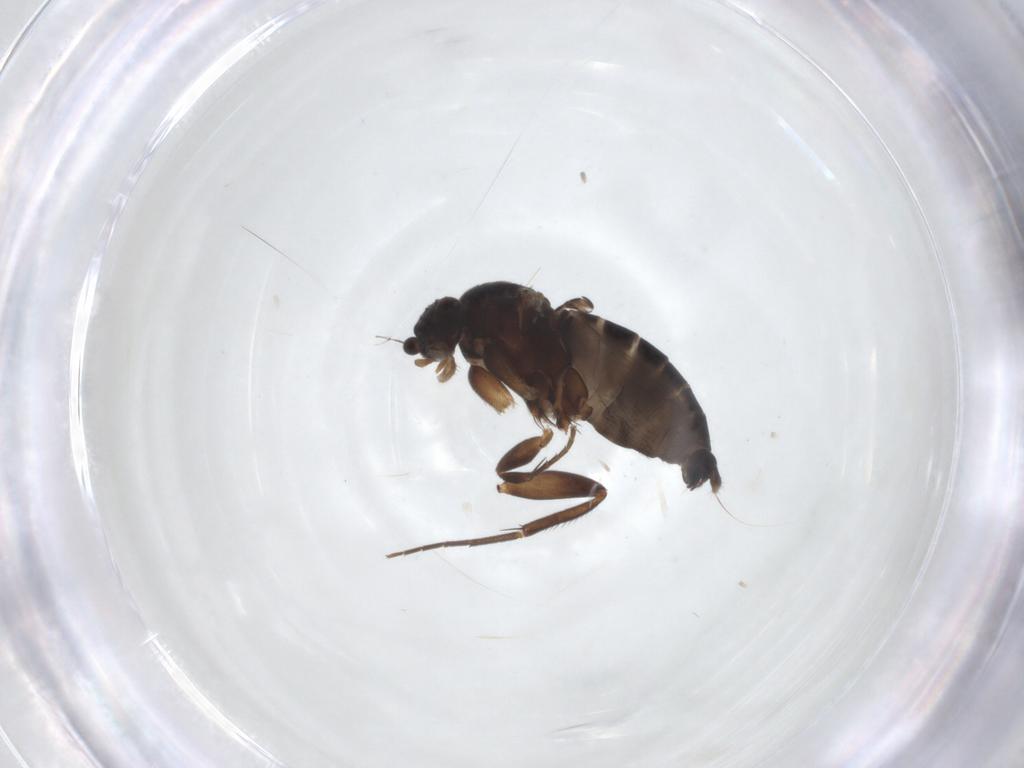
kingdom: Animalia
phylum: Arthropoda
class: Insecta
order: Diptera
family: Phoridae
